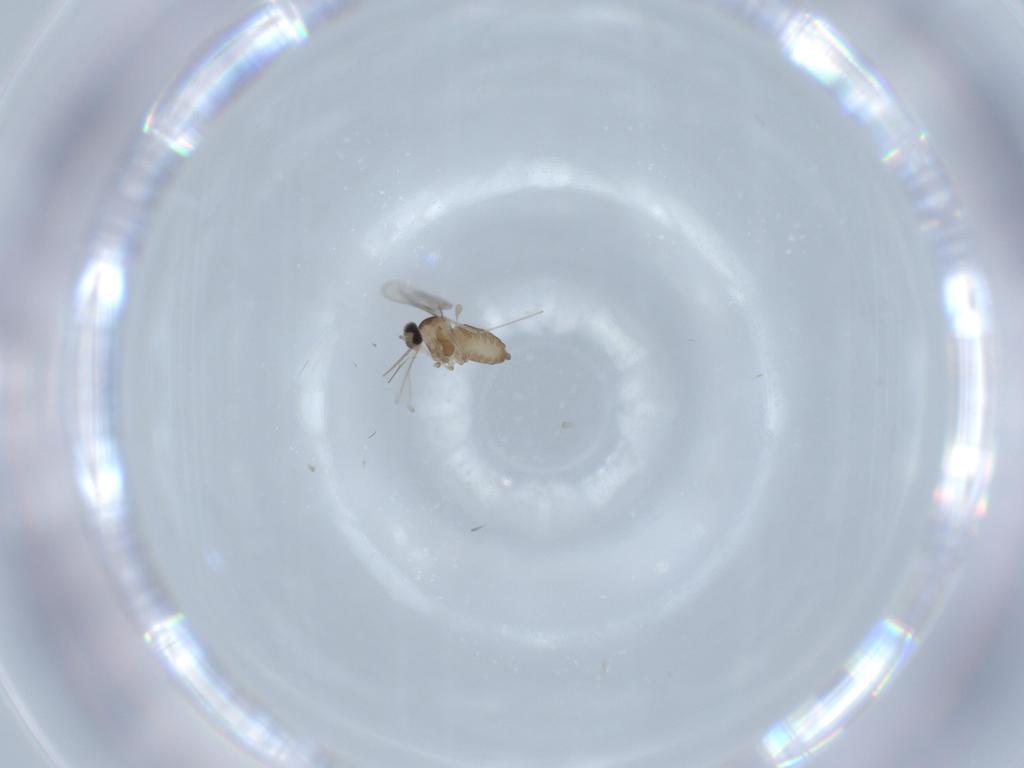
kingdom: Animalia
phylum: Arthropoda
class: Insecta
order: Diptera
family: Cecidomyiidae
